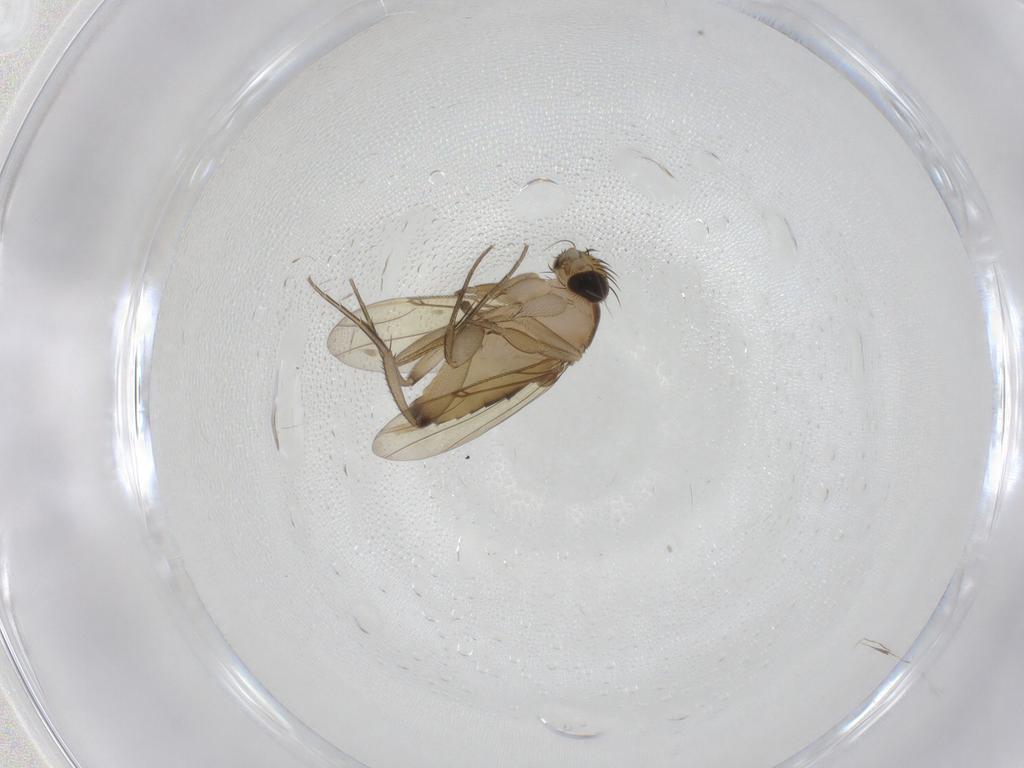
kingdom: Animalia
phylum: Arthropoda
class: Insecta
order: Diptera
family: Phoridae
